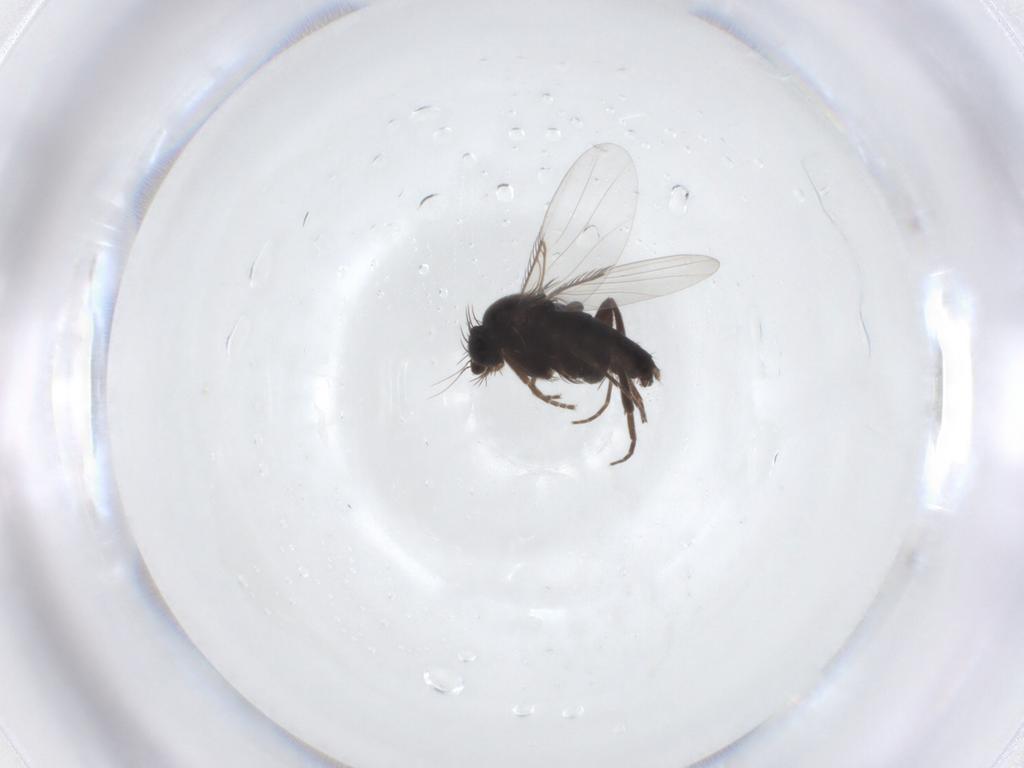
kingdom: Animalia
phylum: Arthropoda
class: Insecta
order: Diptera
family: Phoridae
